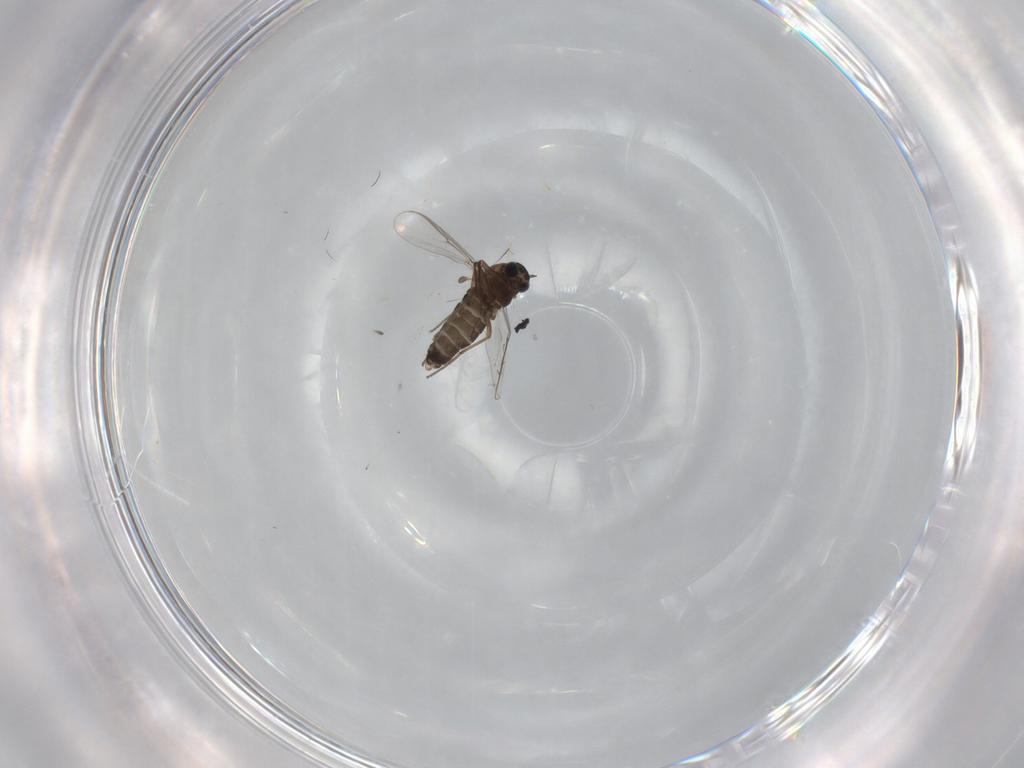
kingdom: Animalia
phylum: Arthropoda
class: Insecta
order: Diptera
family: Chironomidae
